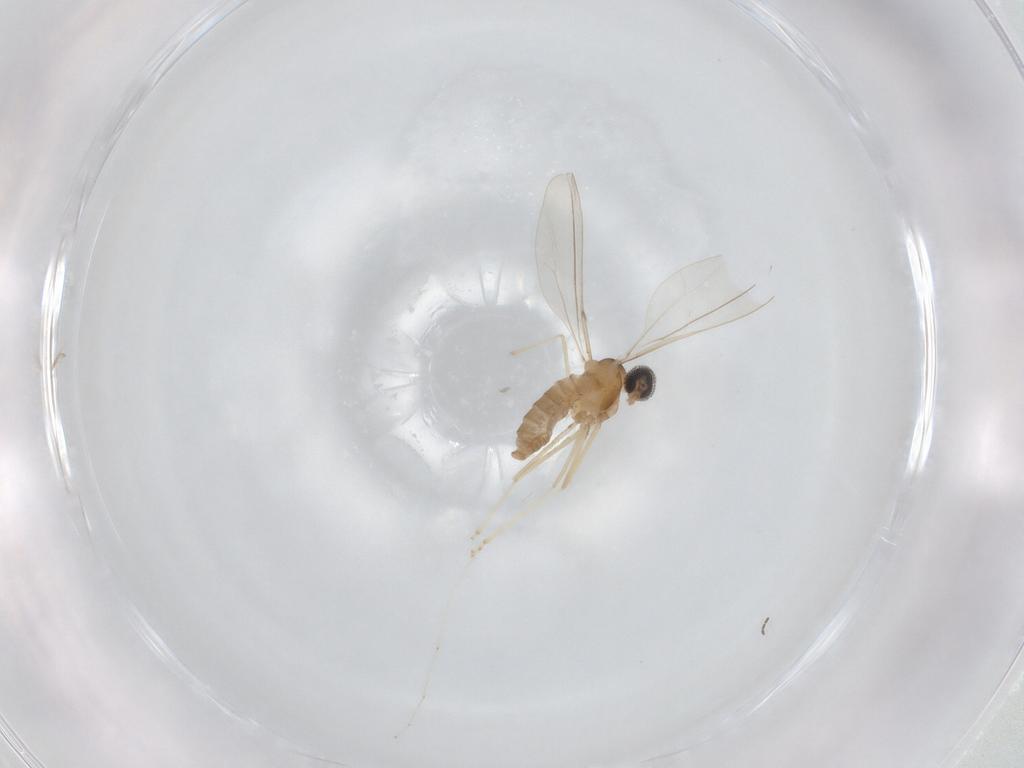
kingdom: Animalia
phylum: Arthropoda
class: Insecta
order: Diptera
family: Cecidomyiidae
